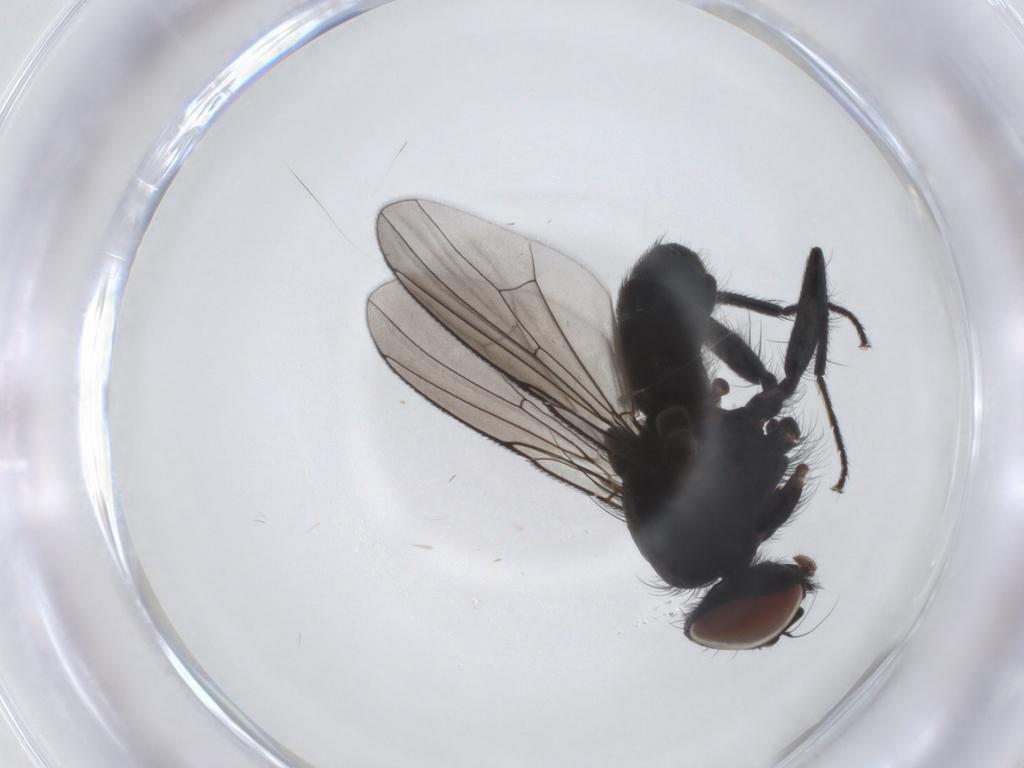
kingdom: Animalia
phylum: Arthropoda
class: Insecta
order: Diptera
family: Muscidae
